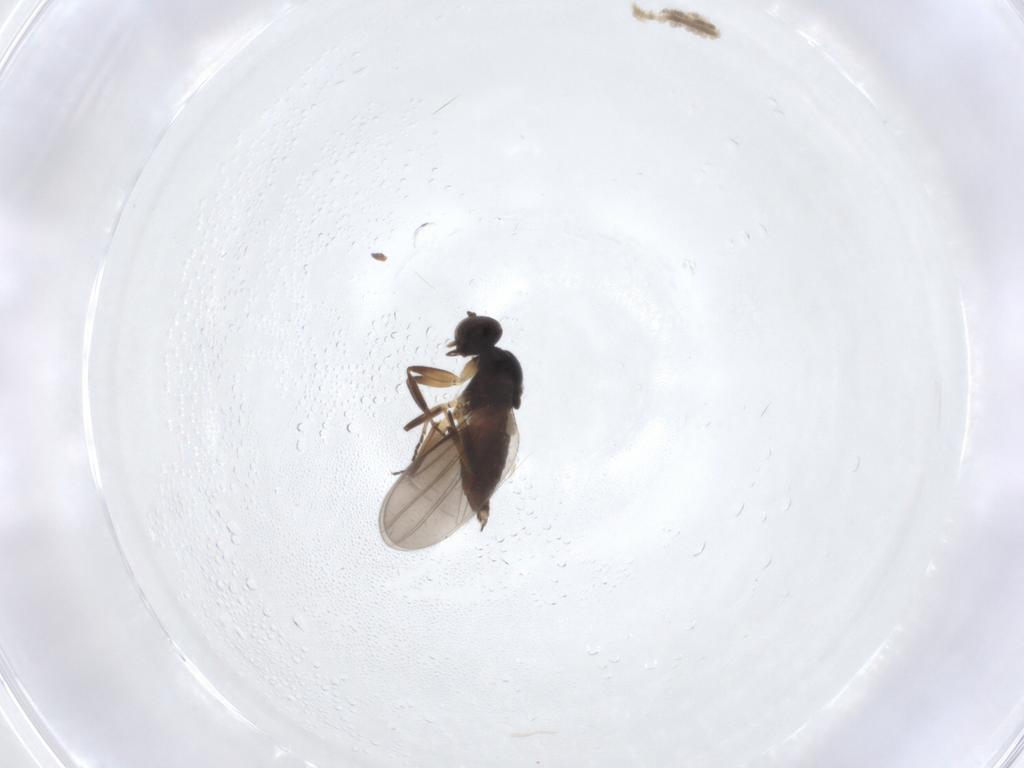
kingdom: Animalia
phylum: Arthropoda
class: Insecta
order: Diptera
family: Hybotidae
